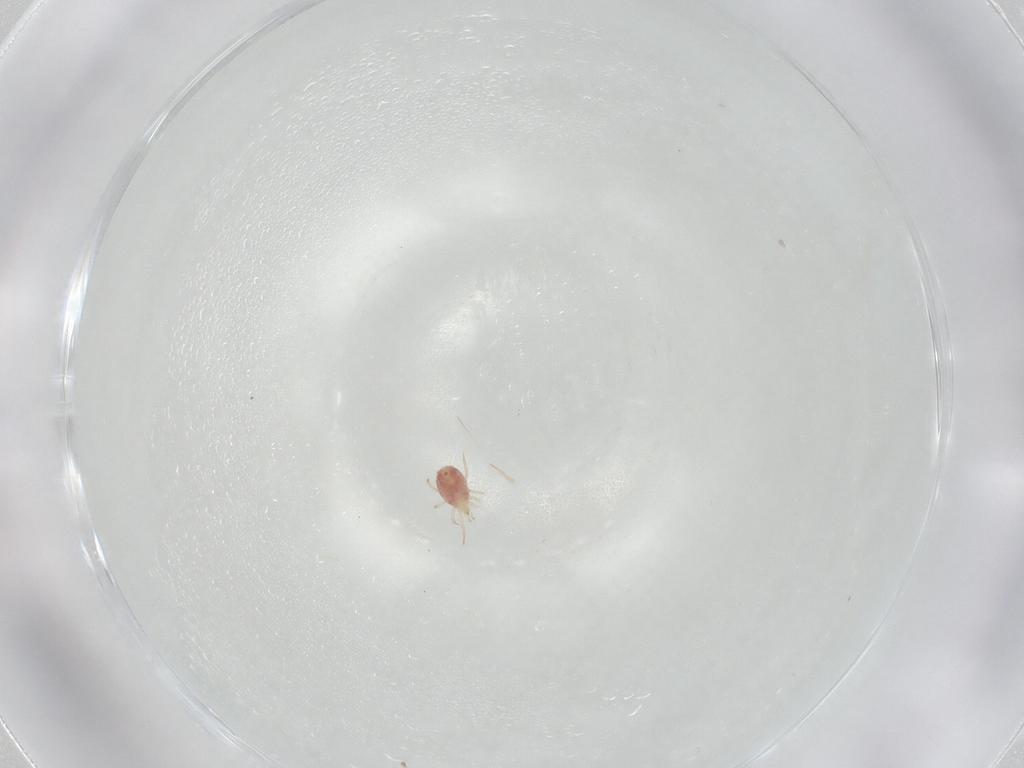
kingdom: Animalia
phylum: Arthropoda
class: Arachnida
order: Mesostigmata
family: Phytoseiidae
